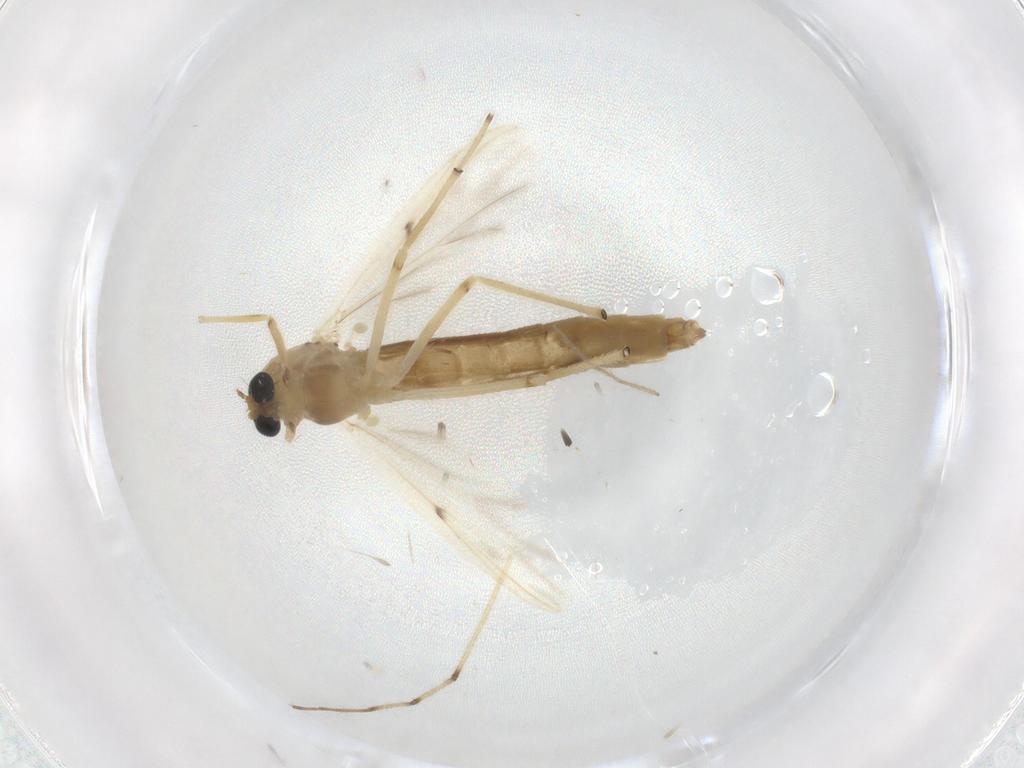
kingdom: Animalia
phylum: Arthropoda
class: Insecta
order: Diptera
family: Chironomidae
